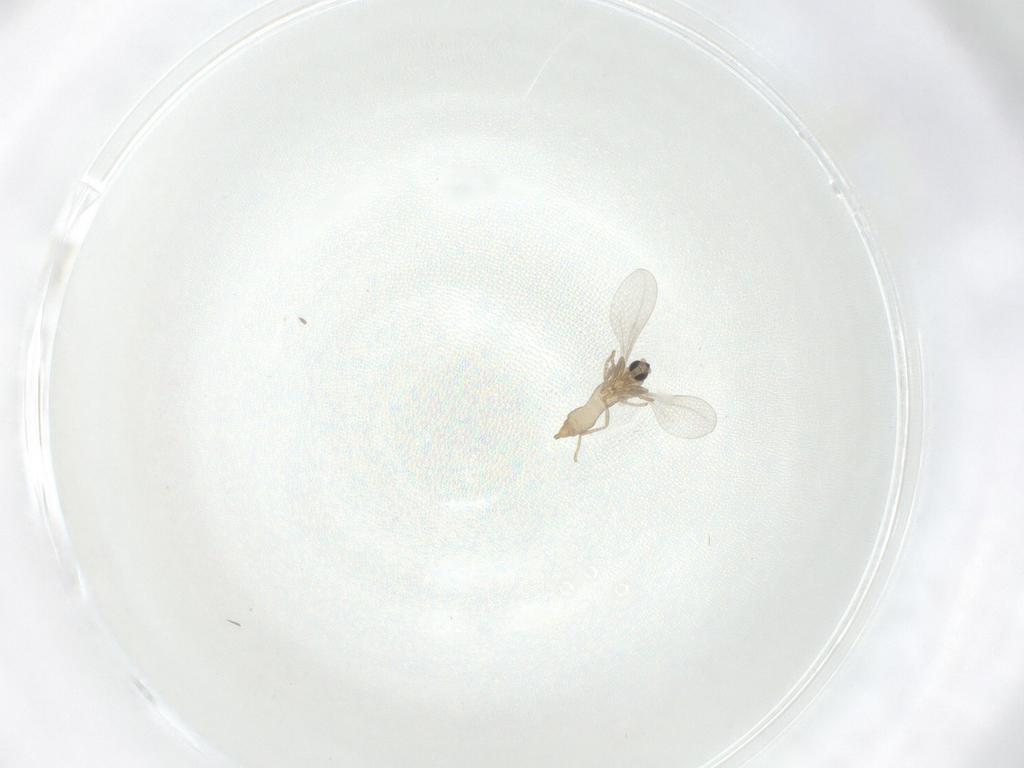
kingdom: Animalia
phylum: Arthropoda
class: Insecta
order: Diptera
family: Cecidomyiidae
